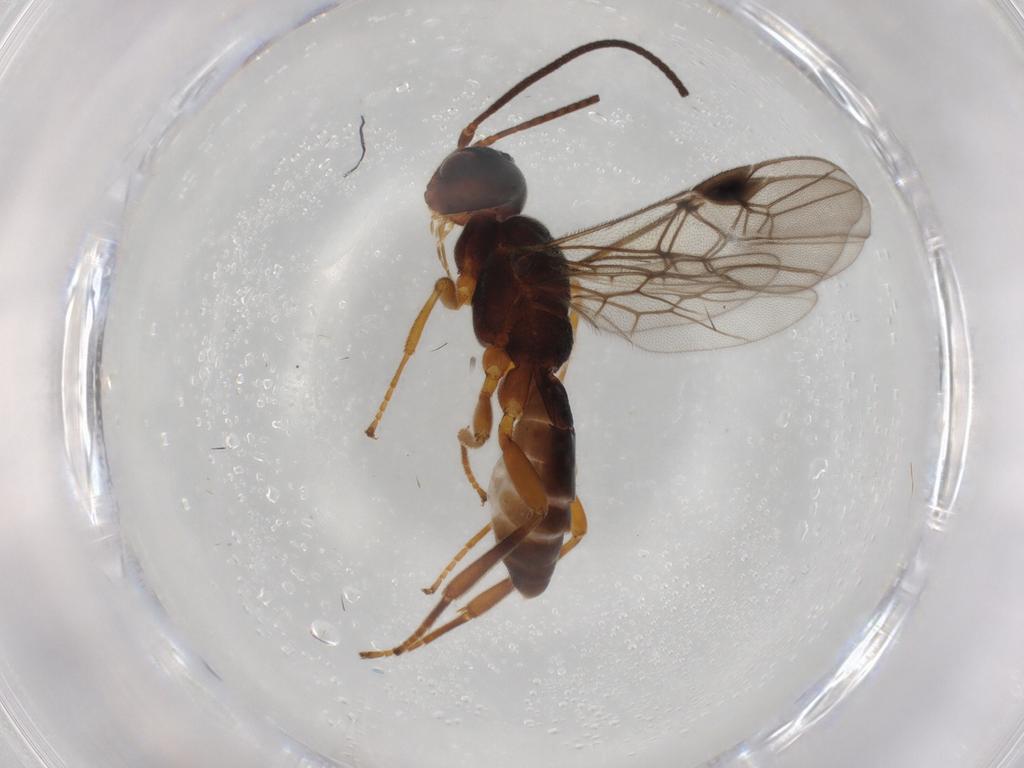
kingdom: Animalia
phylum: Arthropoda
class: Insecta
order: Hymenoptera
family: Braconidae
